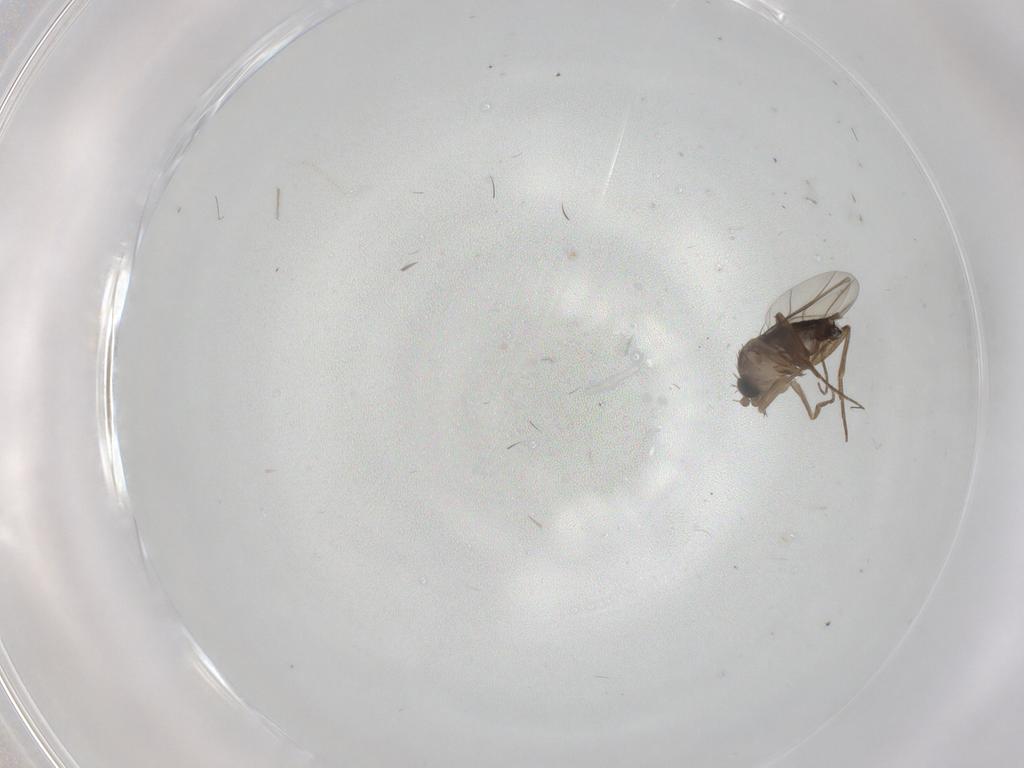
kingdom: Animalia
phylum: Arthropoda
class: Insecta
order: Diptera
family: Phoridae
